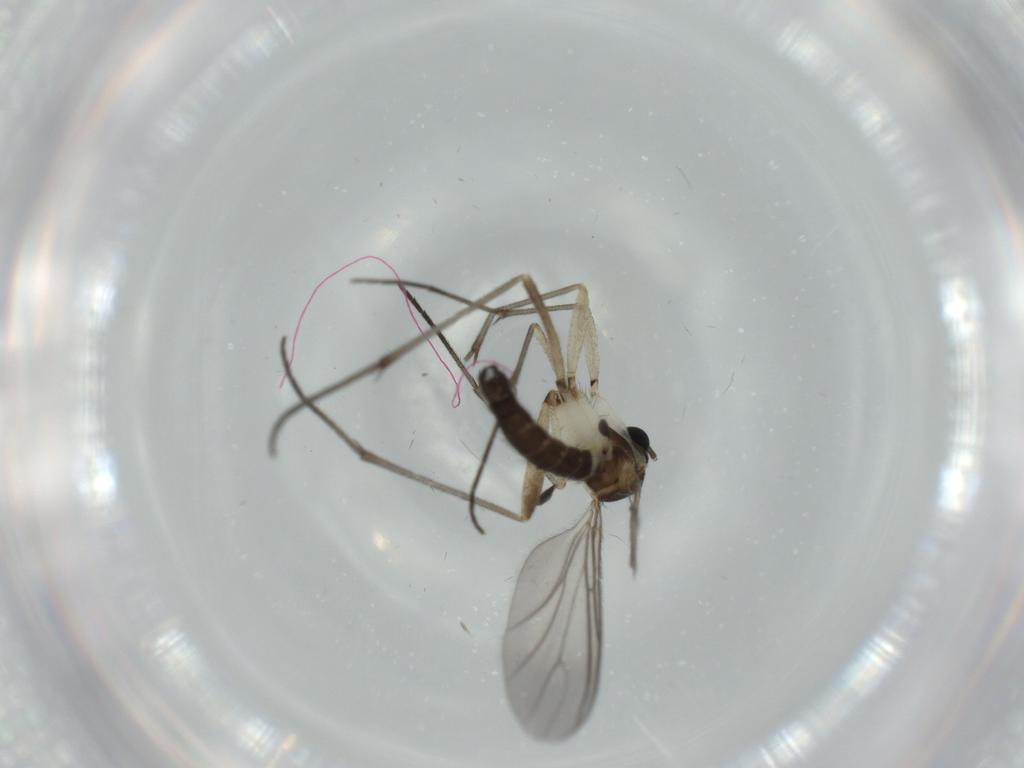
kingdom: Animalia
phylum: Arthropoda
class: Insecta
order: Diptera
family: Sciaridae
